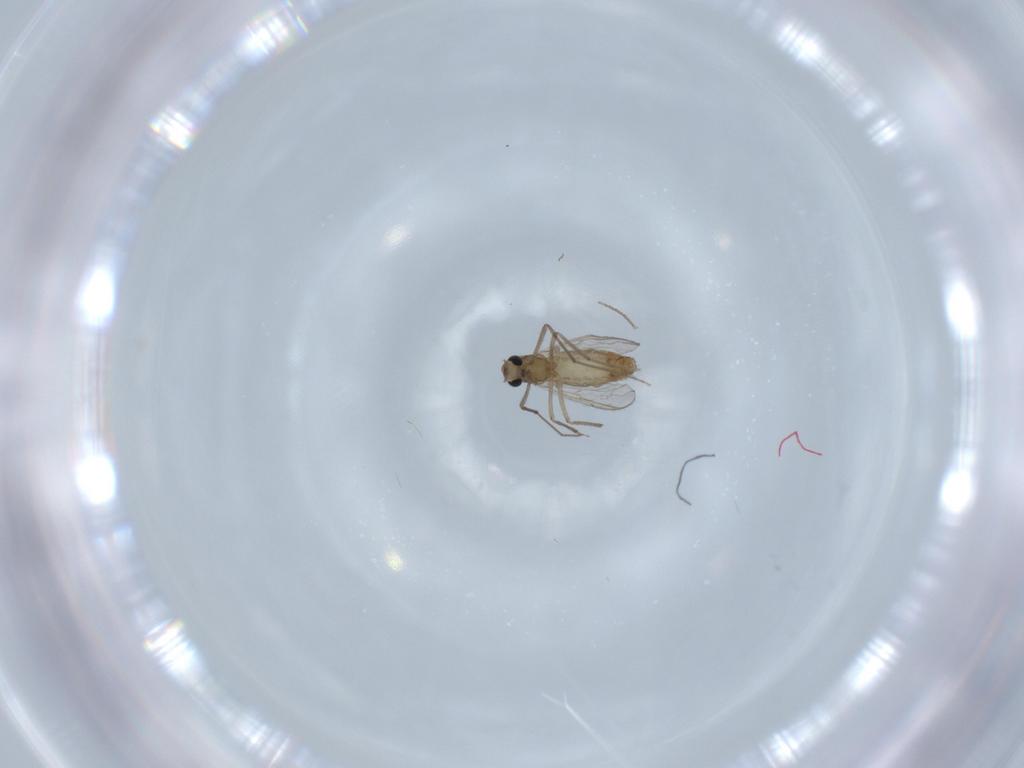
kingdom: Animalia
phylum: Arthropoda
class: Insecta
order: Diptera
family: Chironomidae
